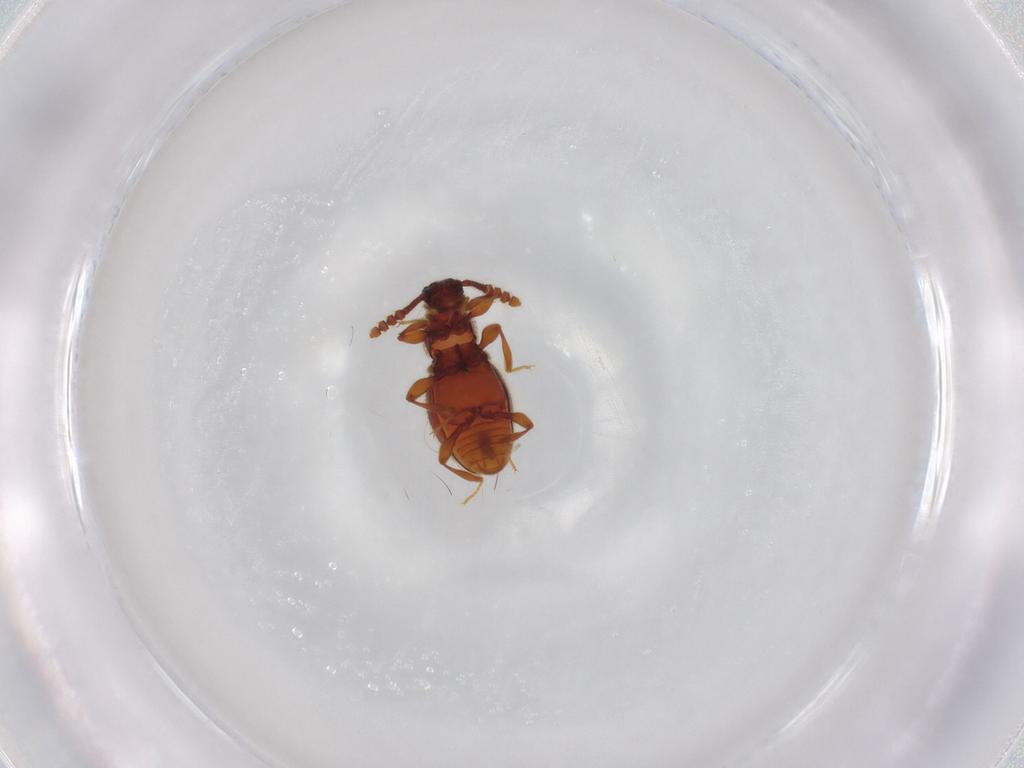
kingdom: Animalia
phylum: Arthropoda
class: Insecta
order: Coleoptera
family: Staphylinidae
